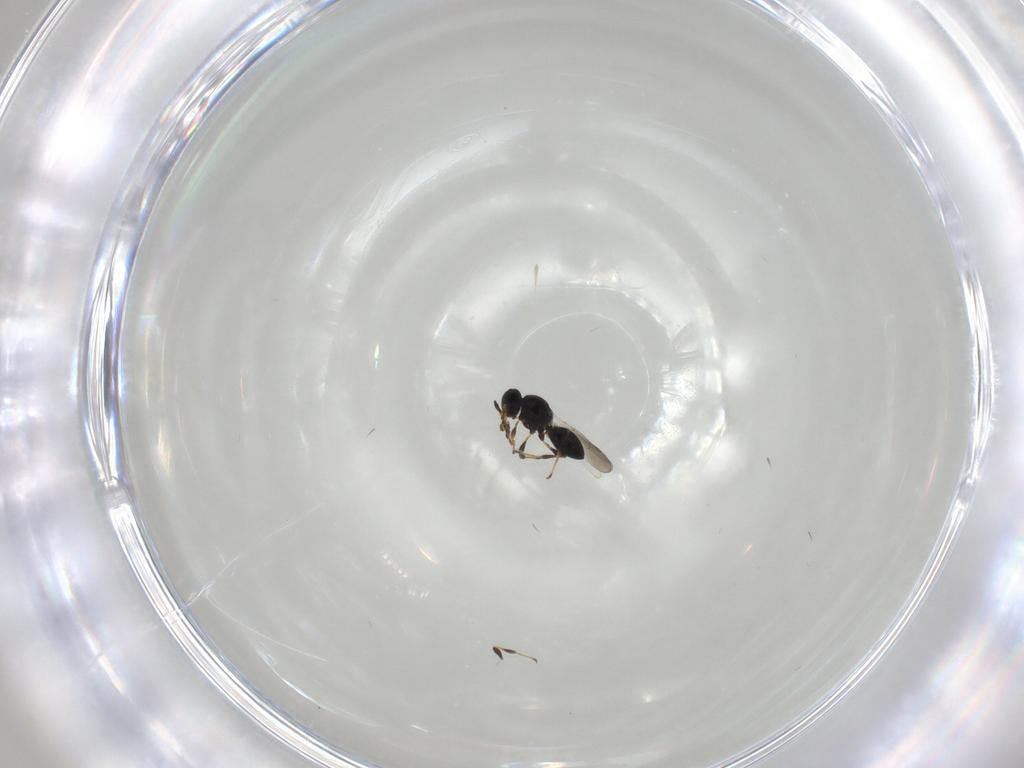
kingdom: Animalia
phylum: Arthropoda
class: Insecta
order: Hymenoptera
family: Platygastridae
